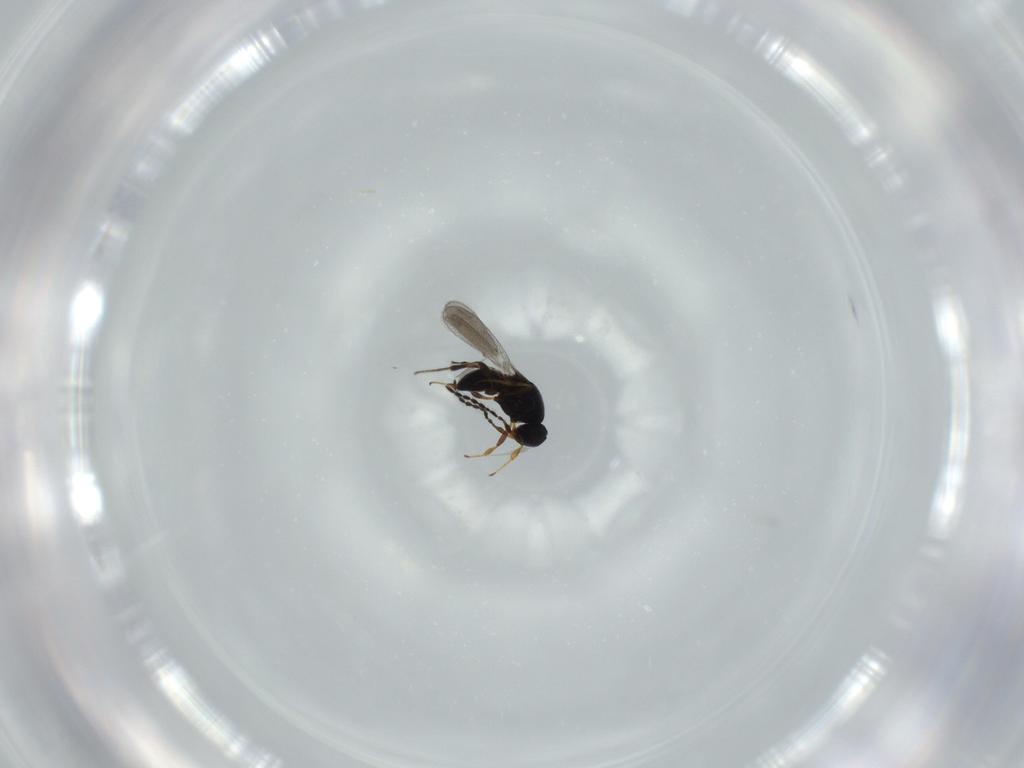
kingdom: Animalia
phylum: Arthropoda
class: Insecta
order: Hymenoptera
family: Platygastridae
